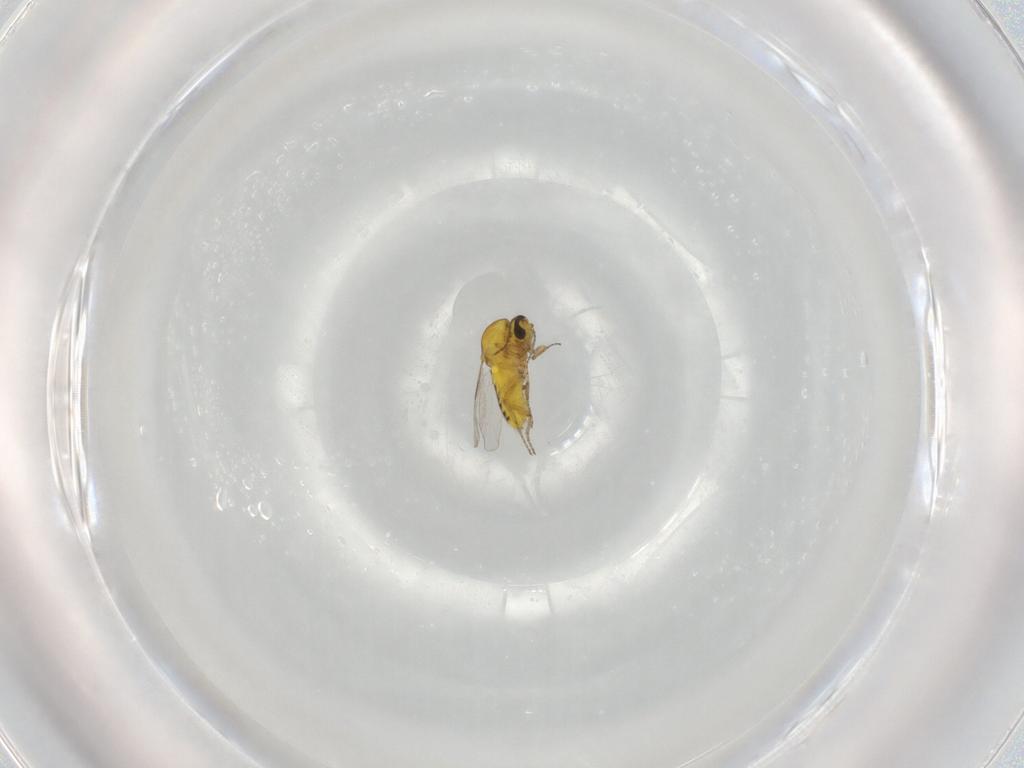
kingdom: Animalia
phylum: Arthropoda
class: Insecta
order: Diptera
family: Ceratopogonidae
